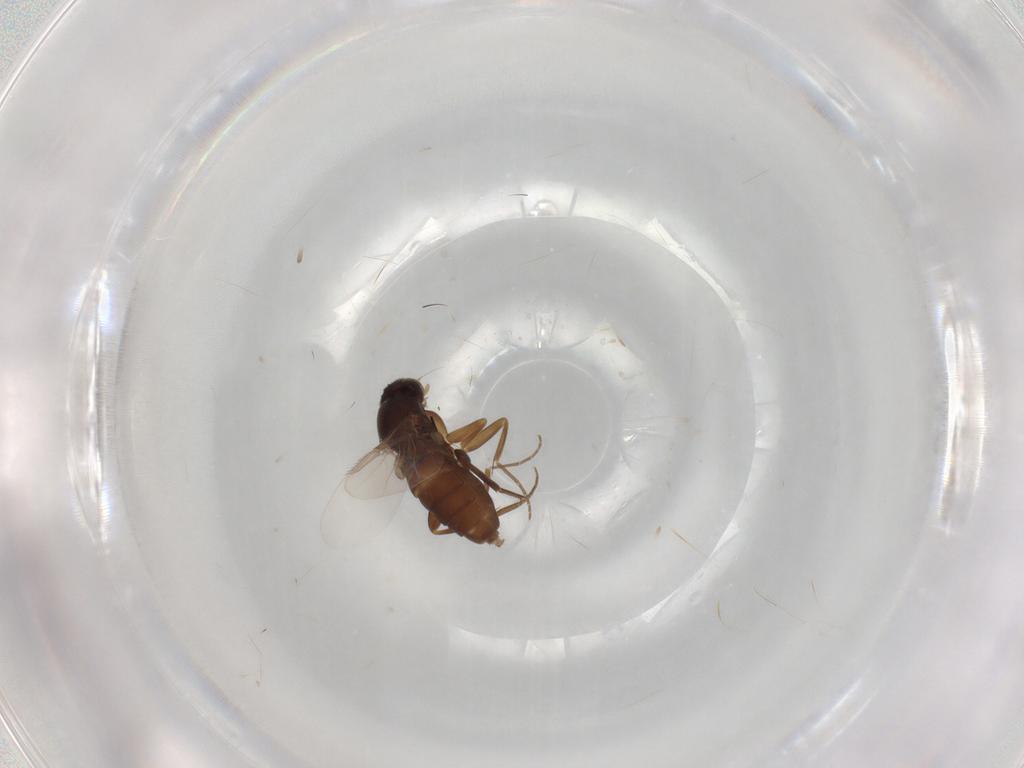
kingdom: Animalia
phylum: Arthropoda
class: Insecta
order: Diptera
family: Phoridae
